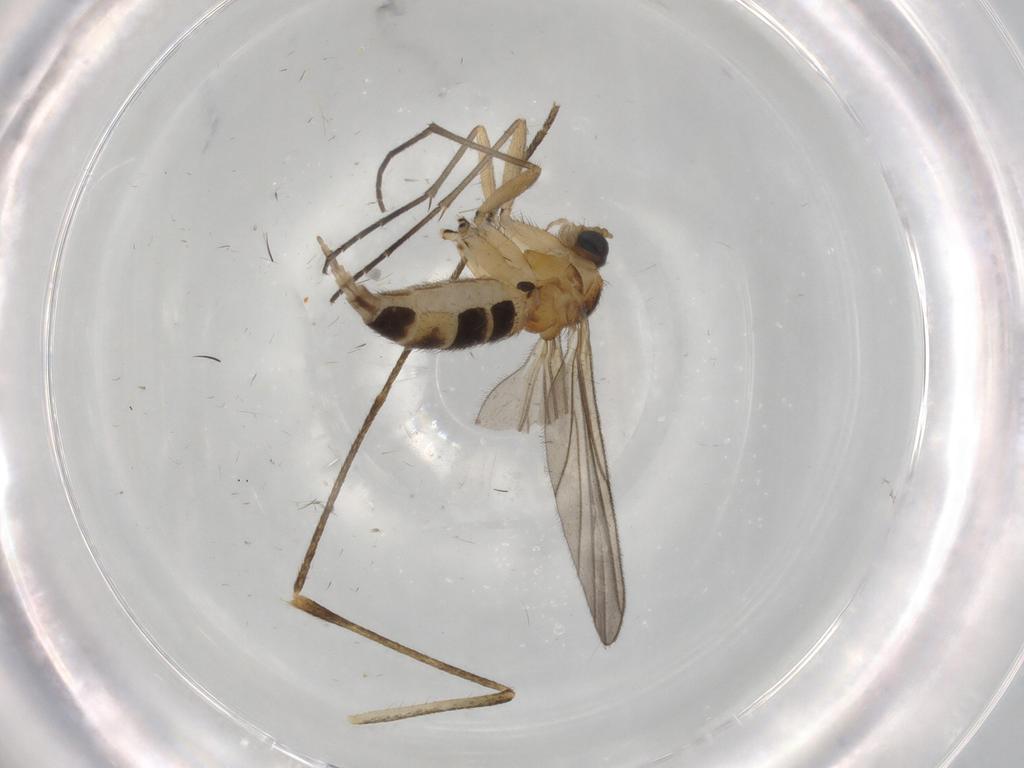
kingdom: Animalia
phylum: Arthropoda
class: Insecta
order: Diptera
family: Culicidae
